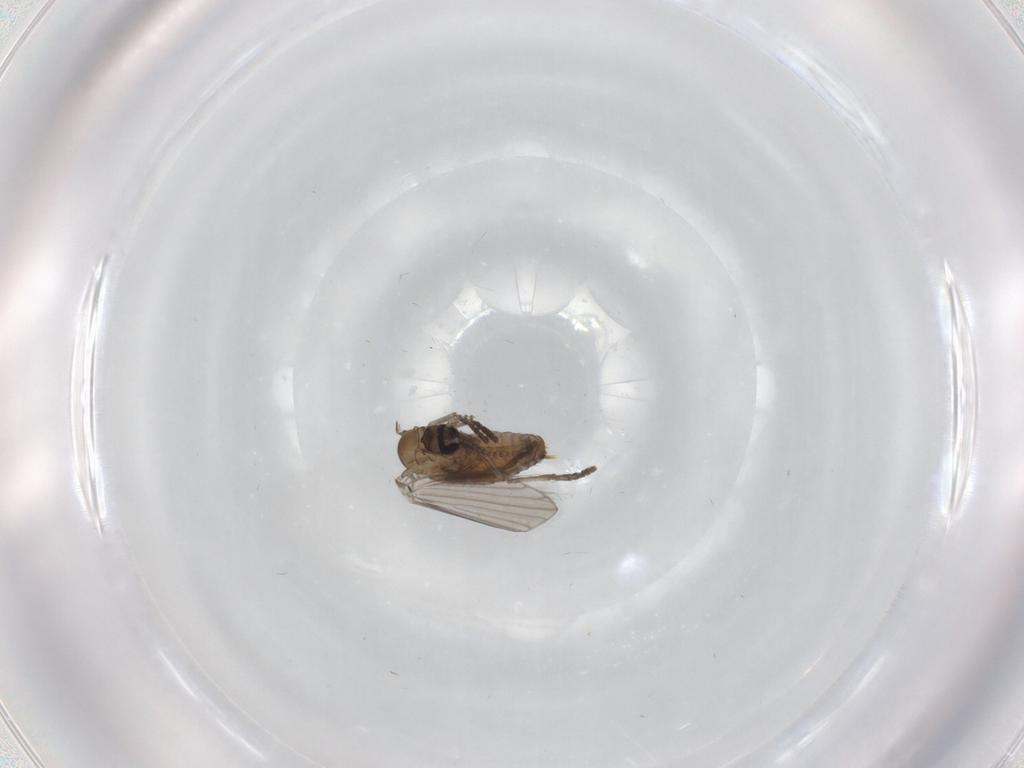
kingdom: Animalia
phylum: Arthropoda
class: Insecta
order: Diptera
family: Psychodidae
